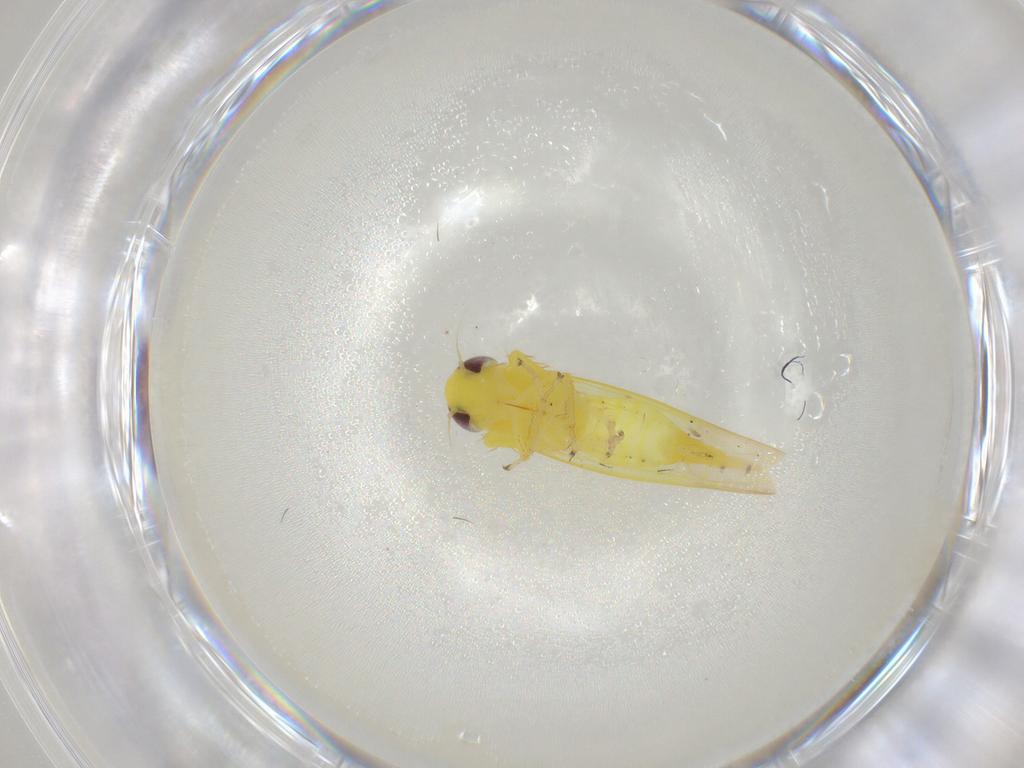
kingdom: Animalia
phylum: Arthropoda
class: Insecta
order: Hemiptera
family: Cicadellidae
